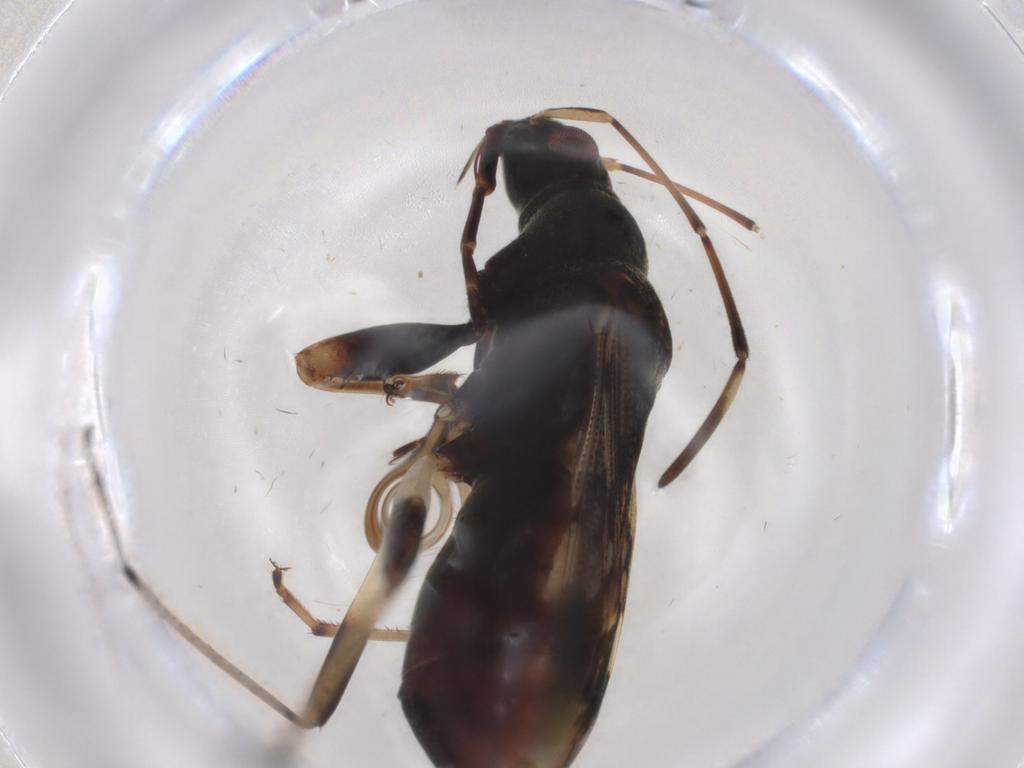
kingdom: Animalia
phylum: Arthropoda
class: Insecta
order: Hemiptera
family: Rhyparochromidae
